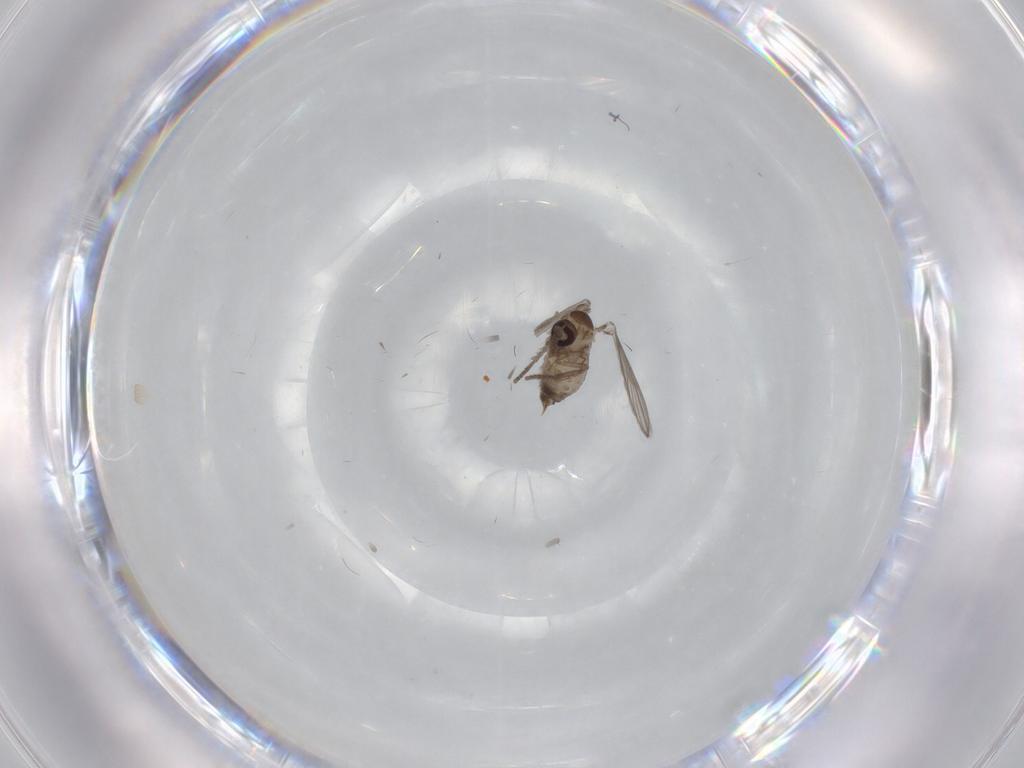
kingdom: Animalia
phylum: Arthropoda
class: Insecta
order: Diptera
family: Psychodidae
